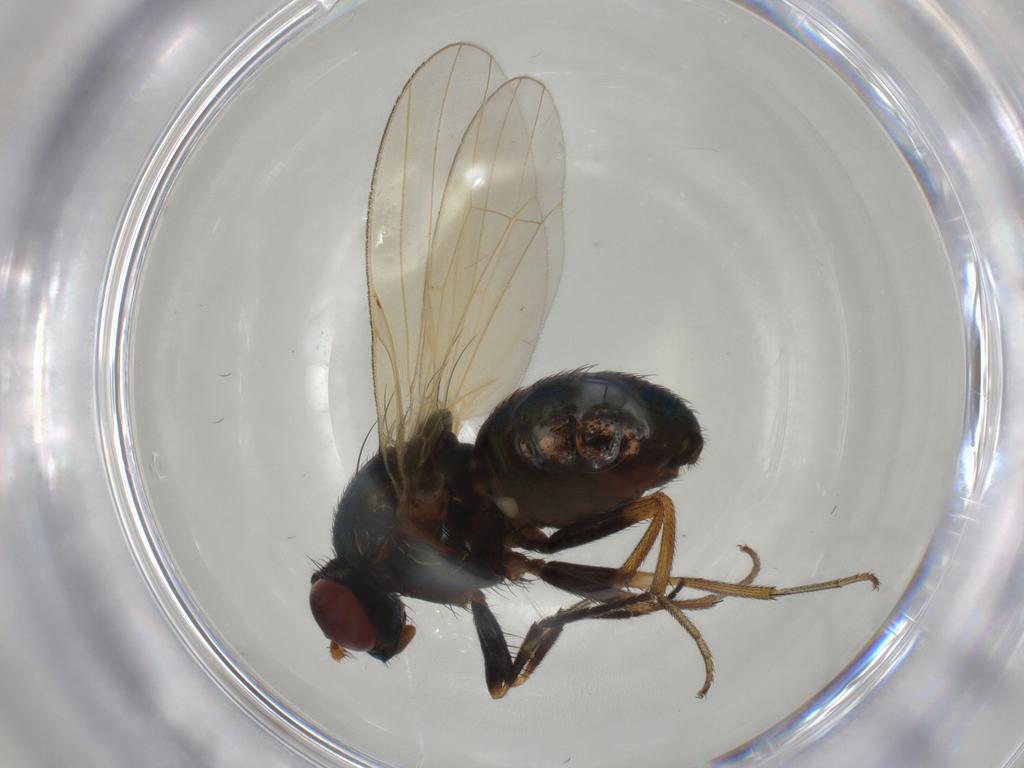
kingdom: Animalia
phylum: Arthropoda
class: Insecta
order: Diptera
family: Lauxaniidae
